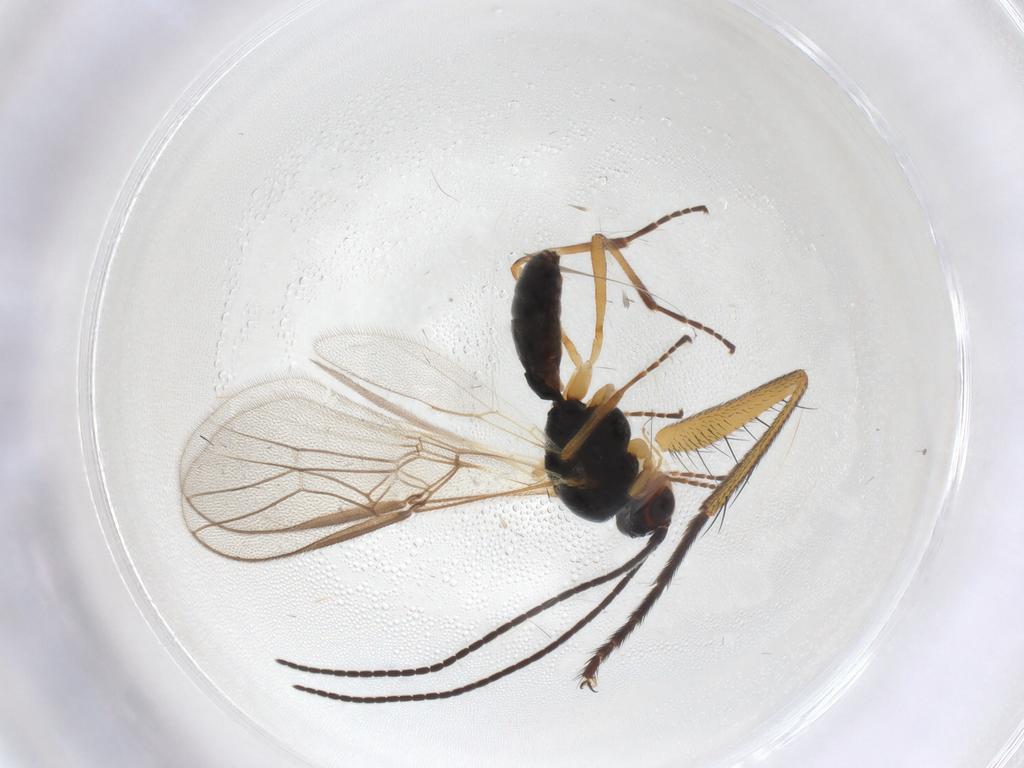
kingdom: Animalia
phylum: Arthropoda
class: Insecta
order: Hymenoptera
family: Braconidae
